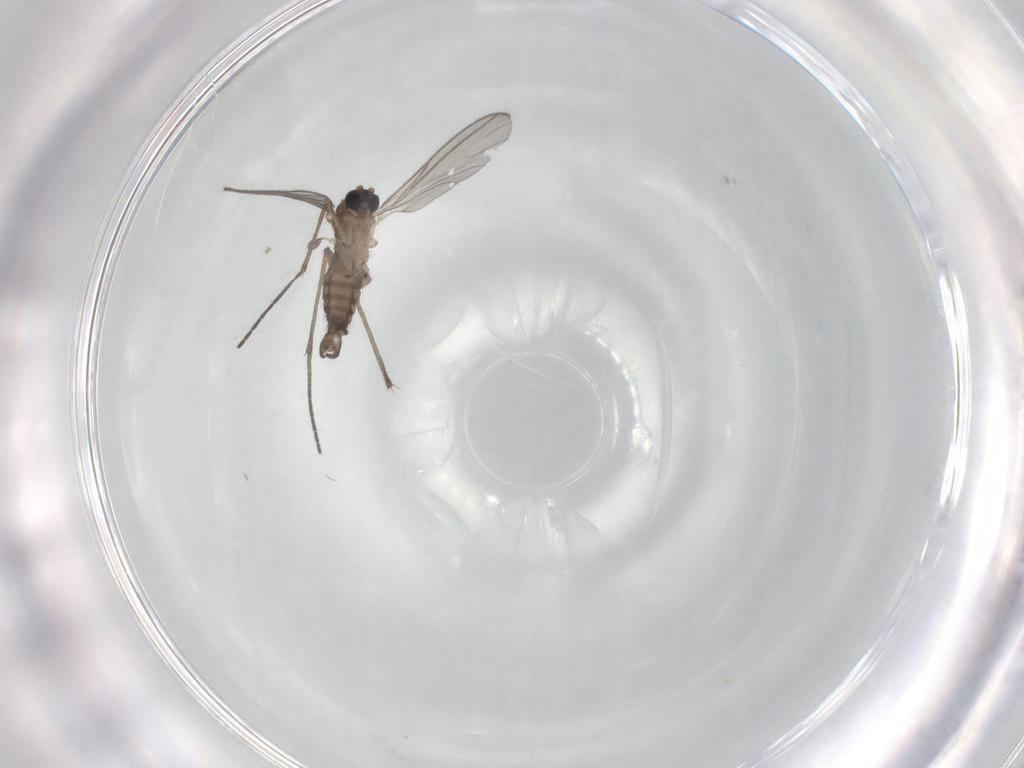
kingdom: Animalia
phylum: Arthropoda
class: Insecta
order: Diptera
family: Sciaridae
